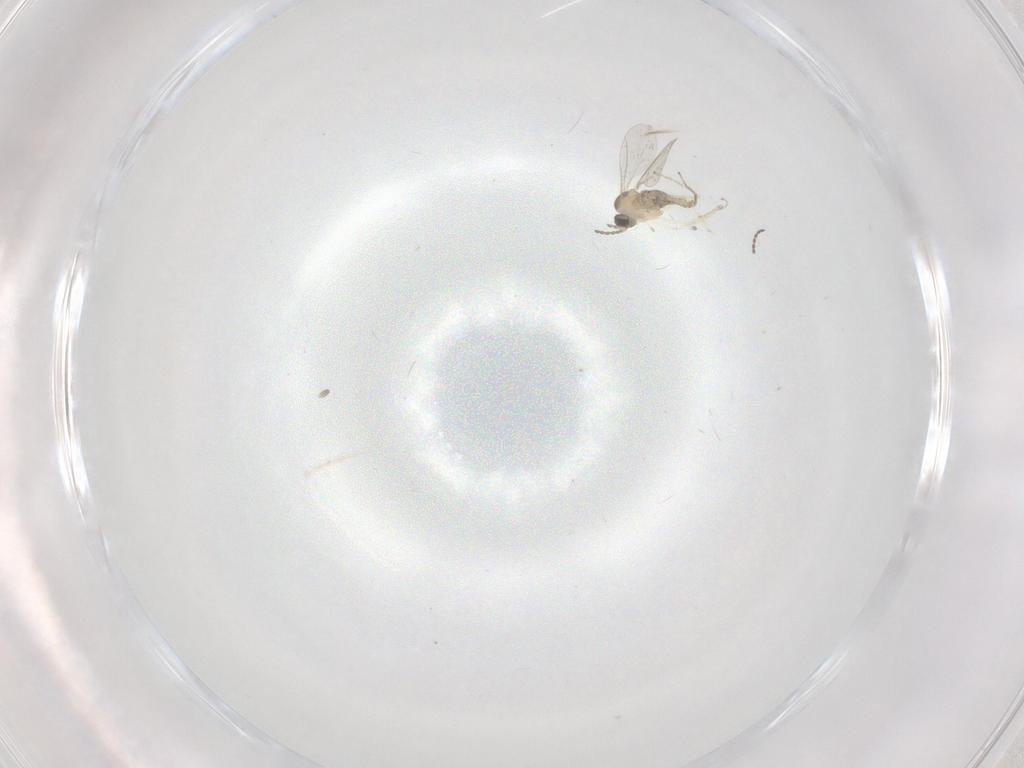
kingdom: Animalia
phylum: Arthropoda
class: Insecta
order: Diptera
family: Cecidomyiidae
